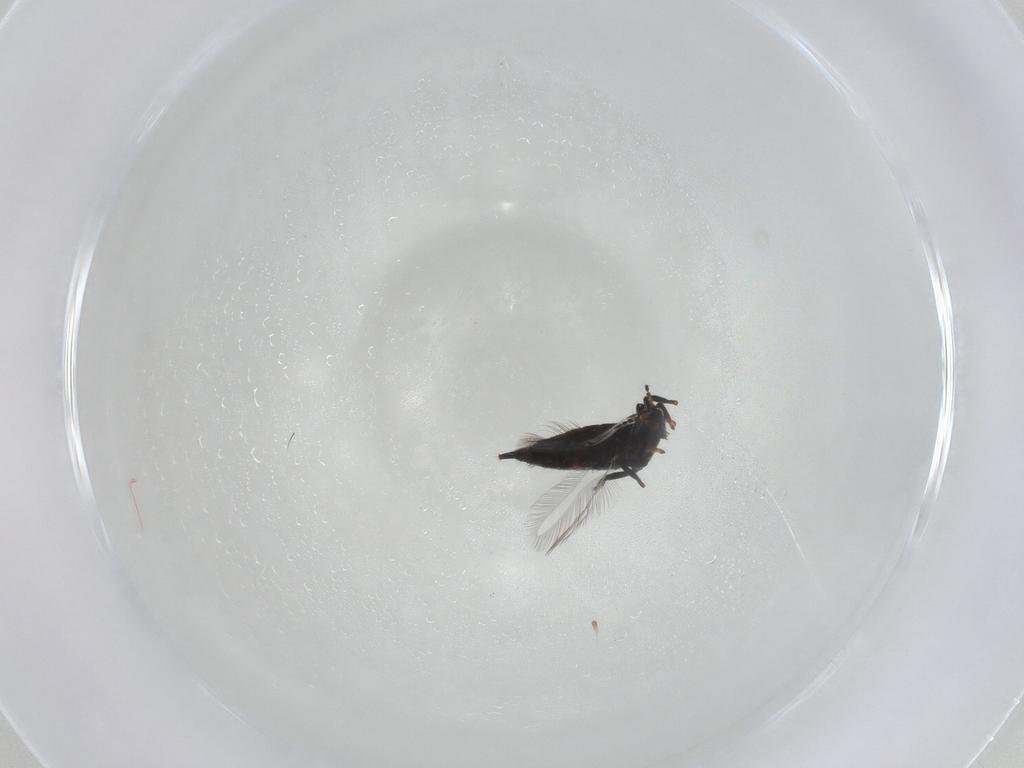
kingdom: Animalia
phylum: Arthropoda
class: Insecta
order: Thysanoptera
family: Phlaeothripidae
